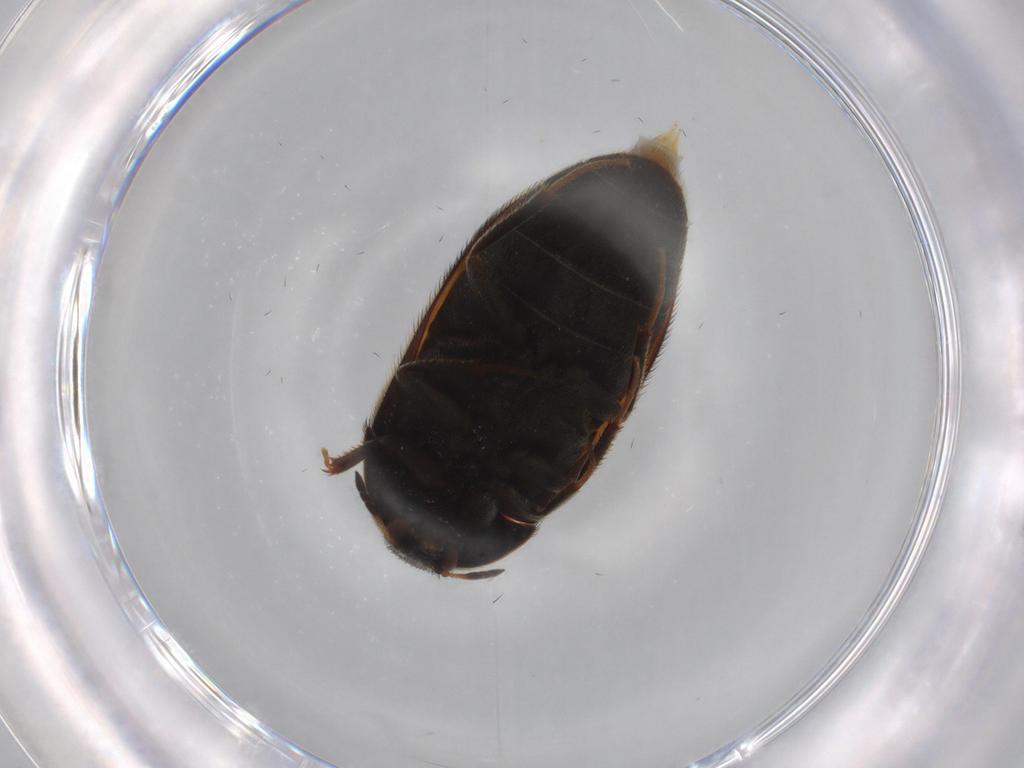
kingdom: Animalia
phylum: Arthropoda
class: Insecta
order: Coleoptera
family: Dermestidae
